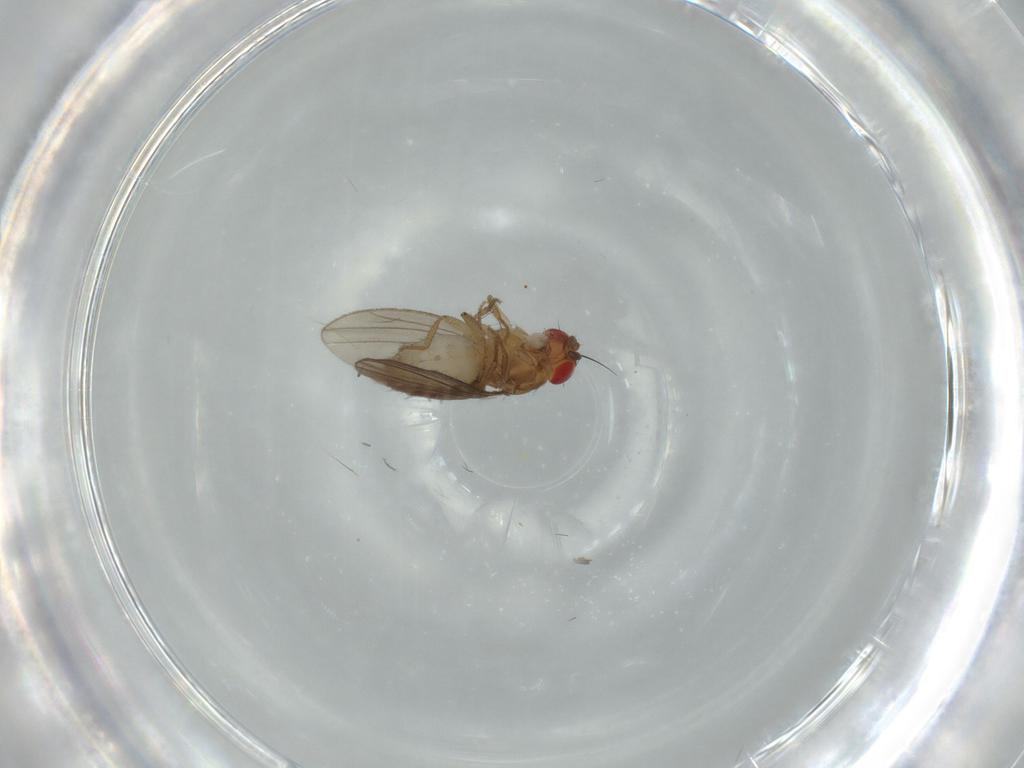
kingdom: Animalia
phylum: Arthropoda
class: Insecta
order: Diptera
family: Drosophilidae
